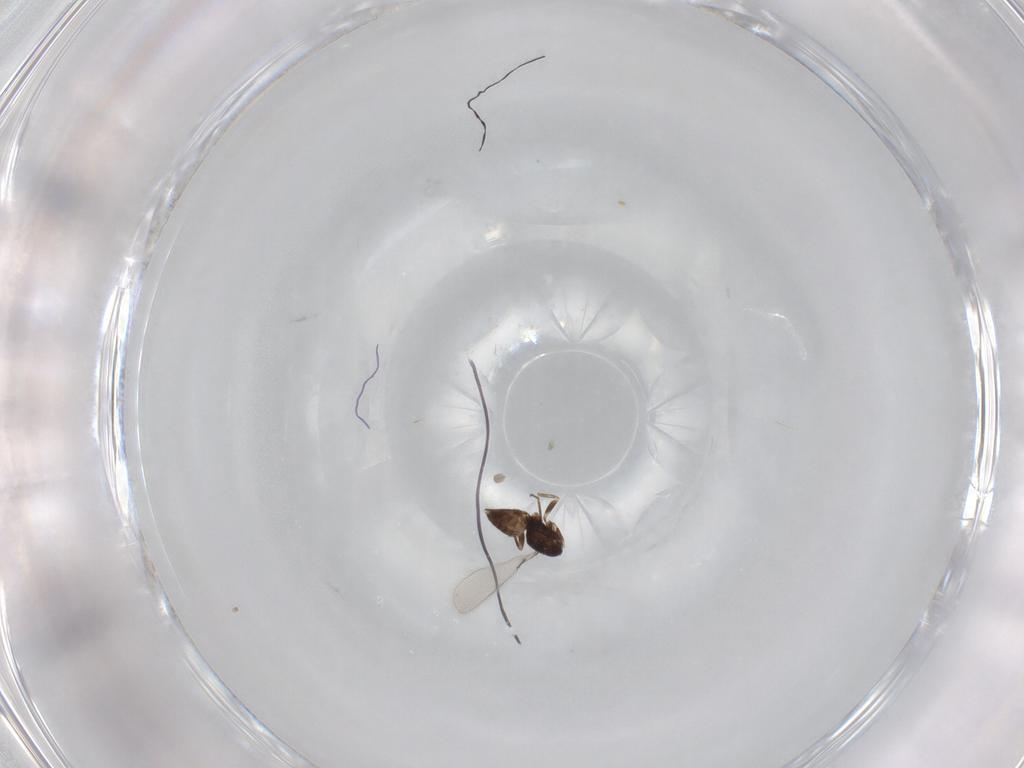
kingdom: Animalia
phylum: Arthropoda
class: Insecta
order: Hymenoptera
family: Mymaridae
